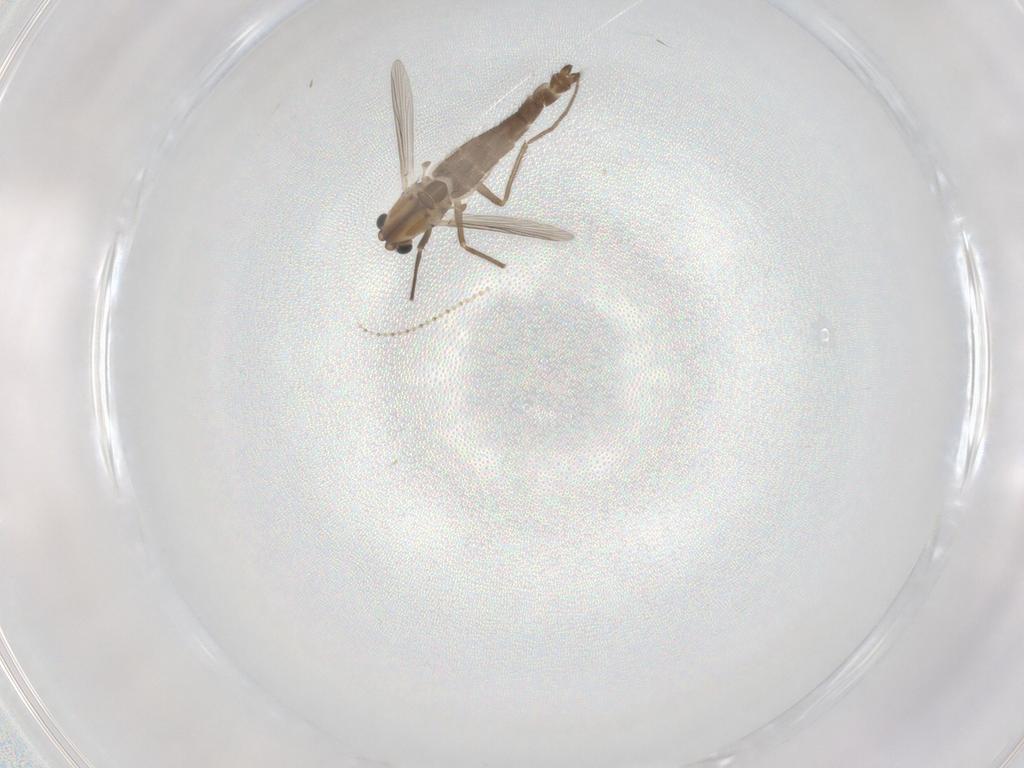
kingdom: Animalia
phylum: Arthropoda
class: Insecta
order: Diptera
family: Chironomidae
